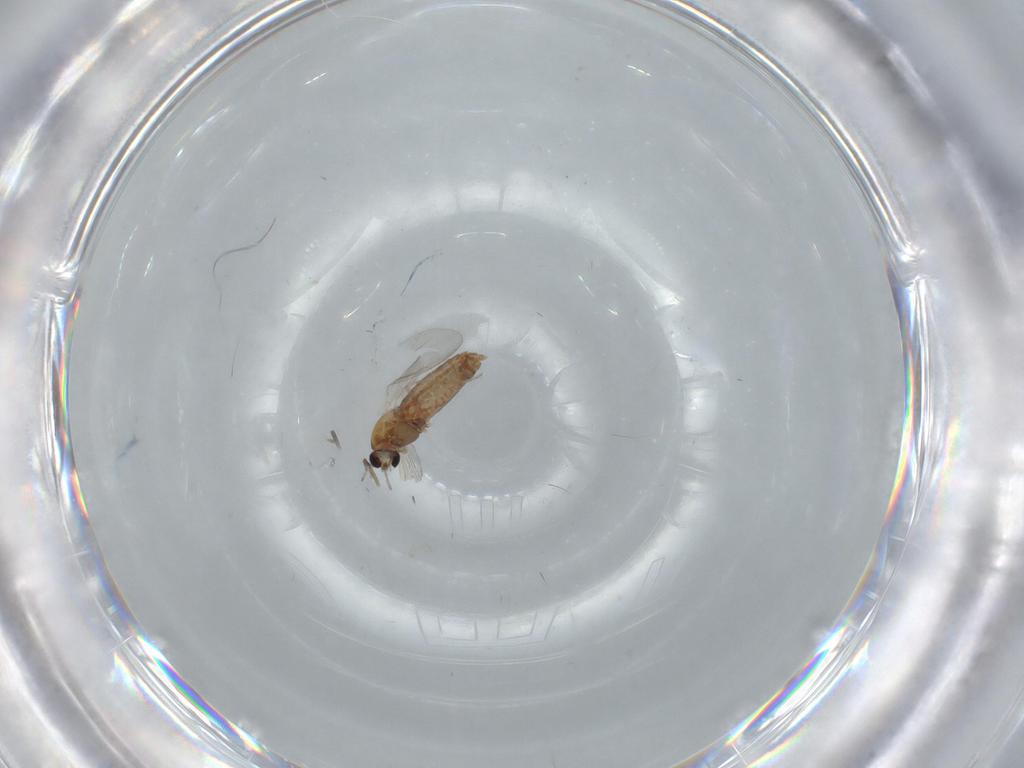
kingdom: Animalia
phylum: Arthropoda
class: Insecta
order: Diptera
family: Chironomidae
